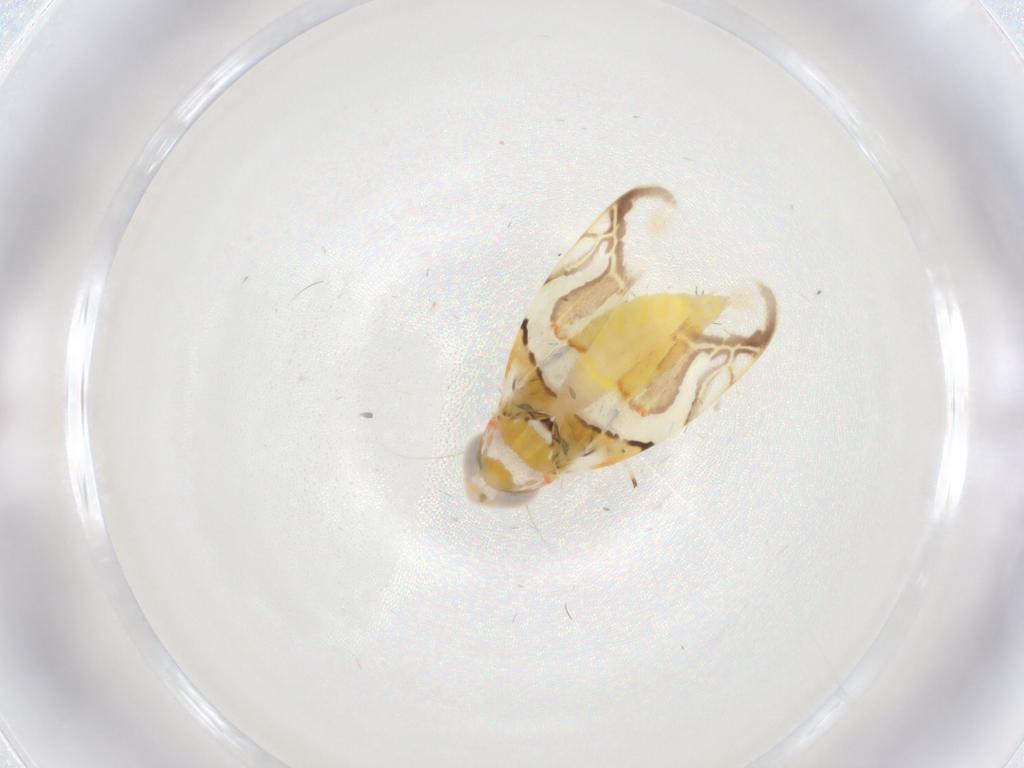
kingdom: Animalia
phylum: Arthropoda
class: Insecta
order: Hemiptera
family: Cicadellidae
